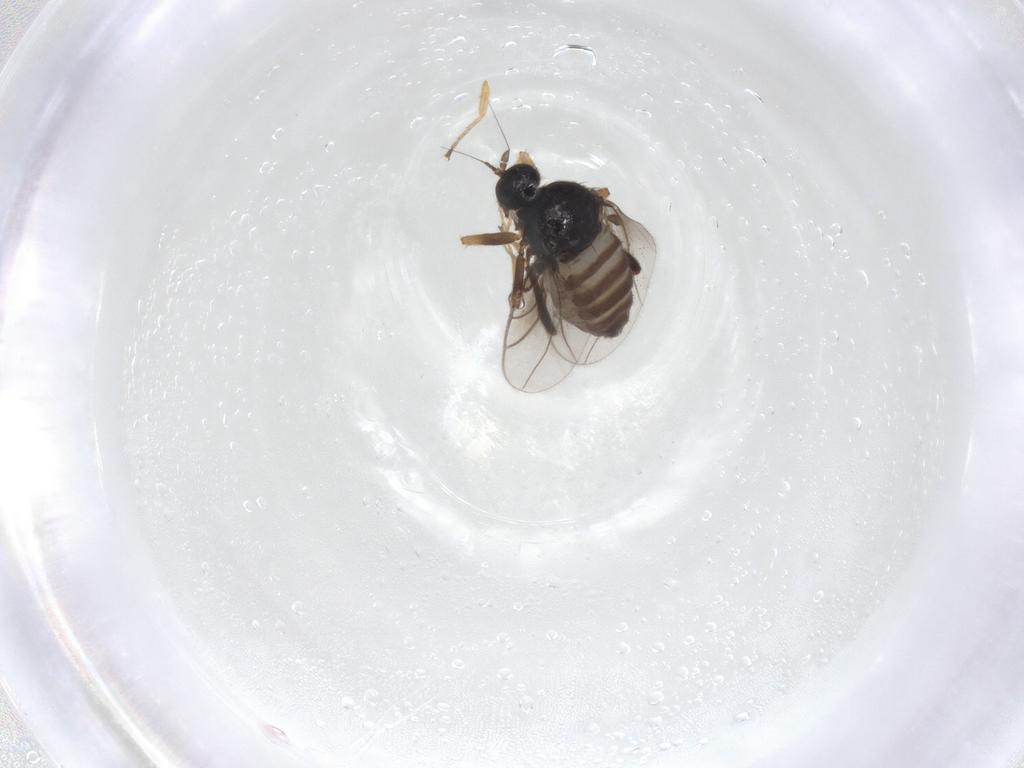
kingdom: Animalia
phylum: Arthropoda
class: Insecta
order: Diptera
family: Hybotidae
